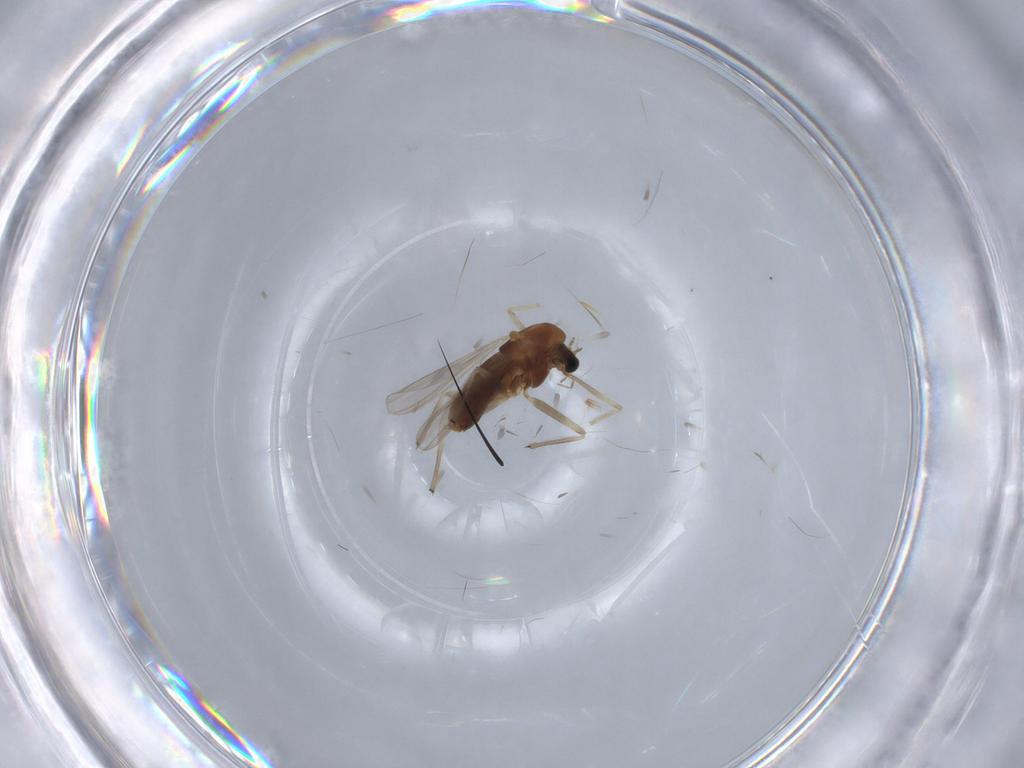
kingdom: Animalia
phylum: Arthropoda
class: Insecta
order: Diptera
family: Chironomidae
